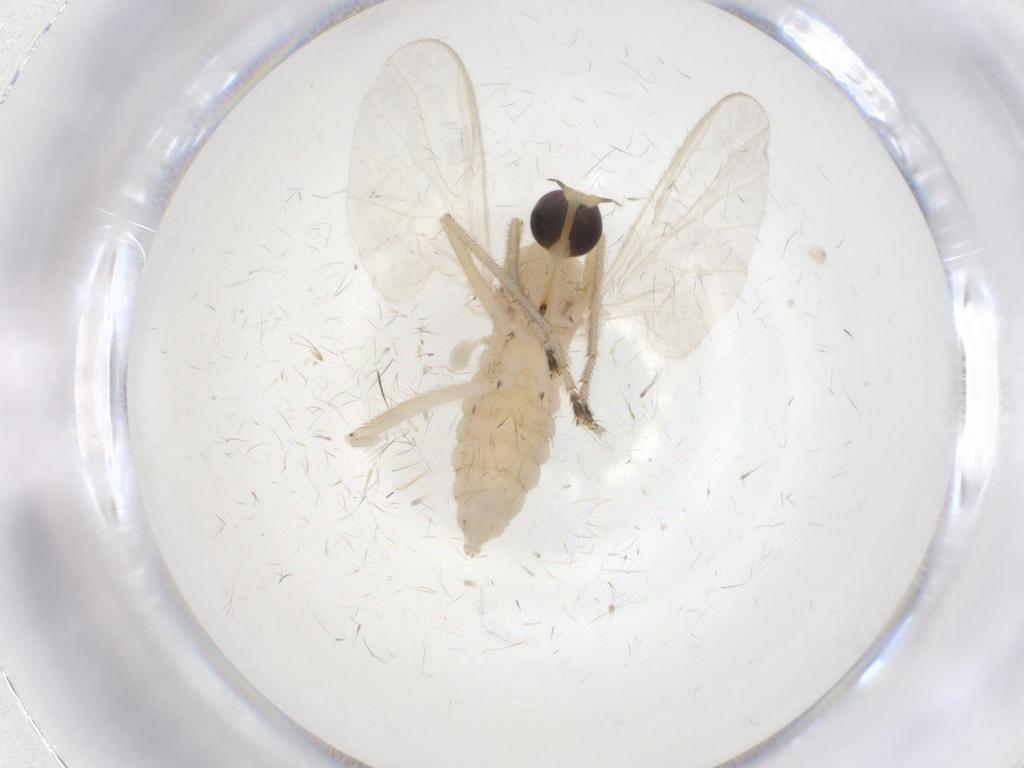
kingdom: Animalia
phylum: Arthropoda
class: Insecta
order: Diptera
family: Empididae
